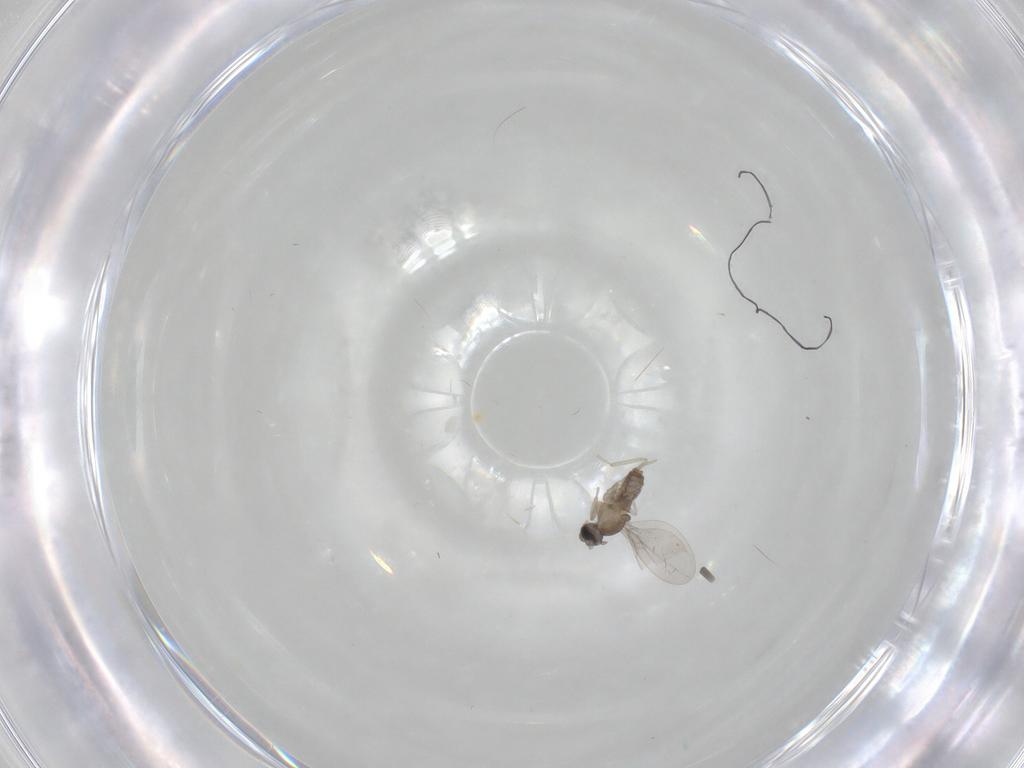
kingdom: Animalia
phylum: Arthropoda
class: Insecta
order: Diptera
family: Cecidomyiidae
